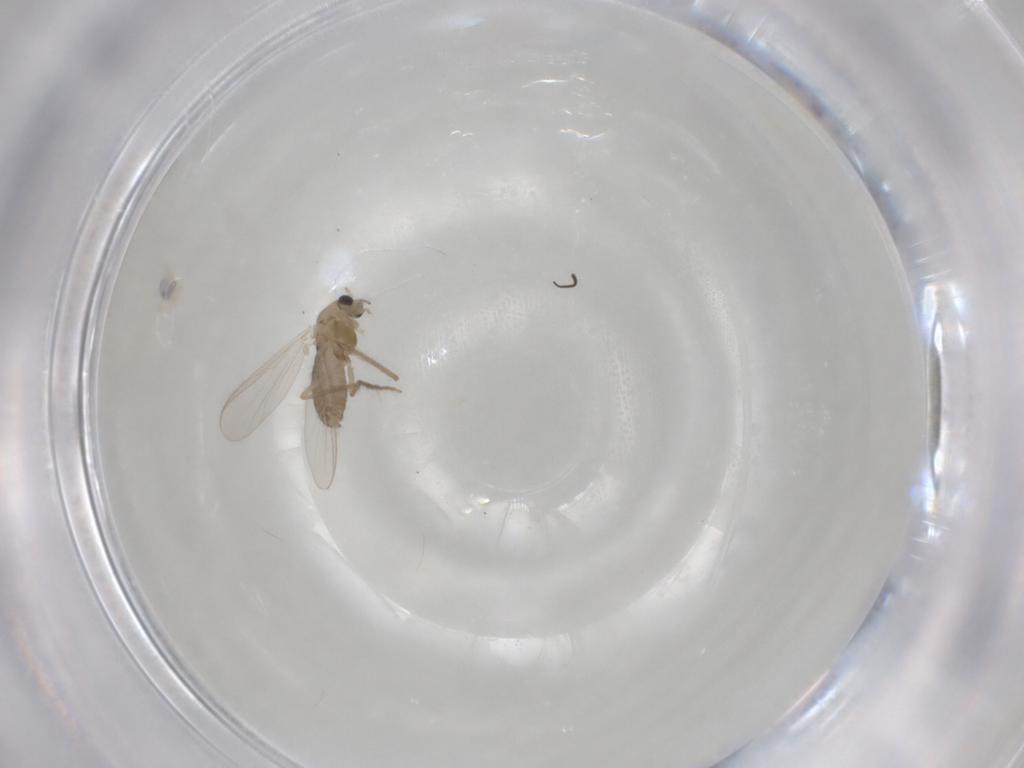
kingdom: Animalia
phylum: Arthropoda
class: Insecta
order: Diptera
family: Chironomidae
